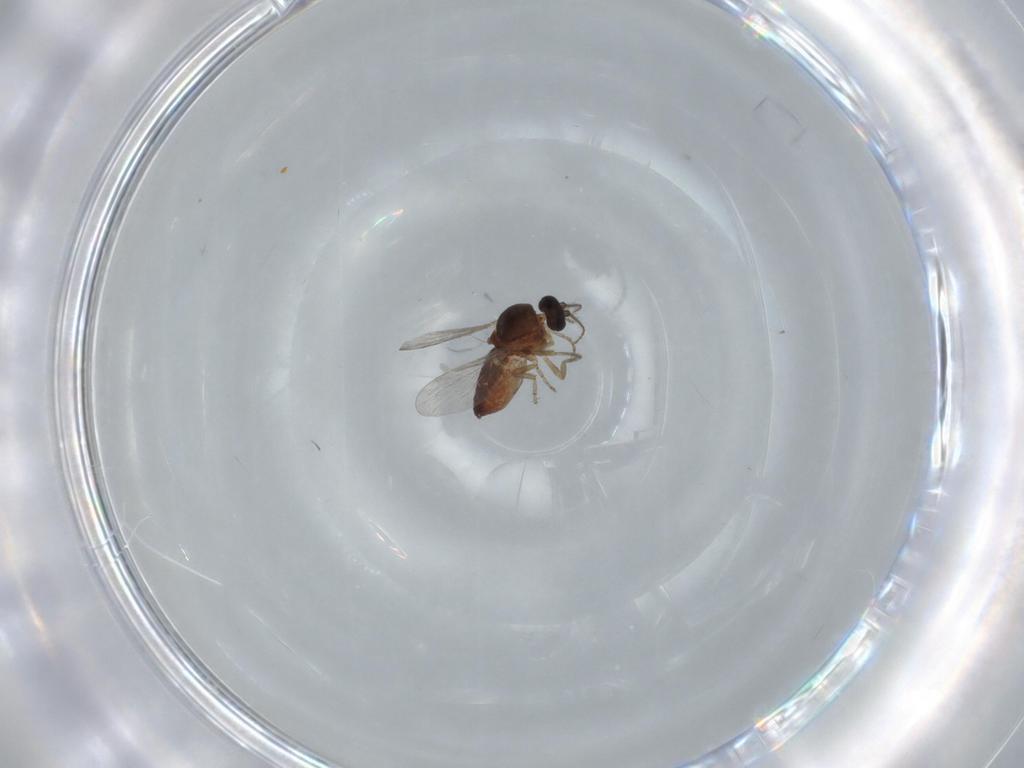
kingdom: Animalia
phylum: Arthropoda
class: Insecta
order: Diptera
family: Ceratopogonidae
